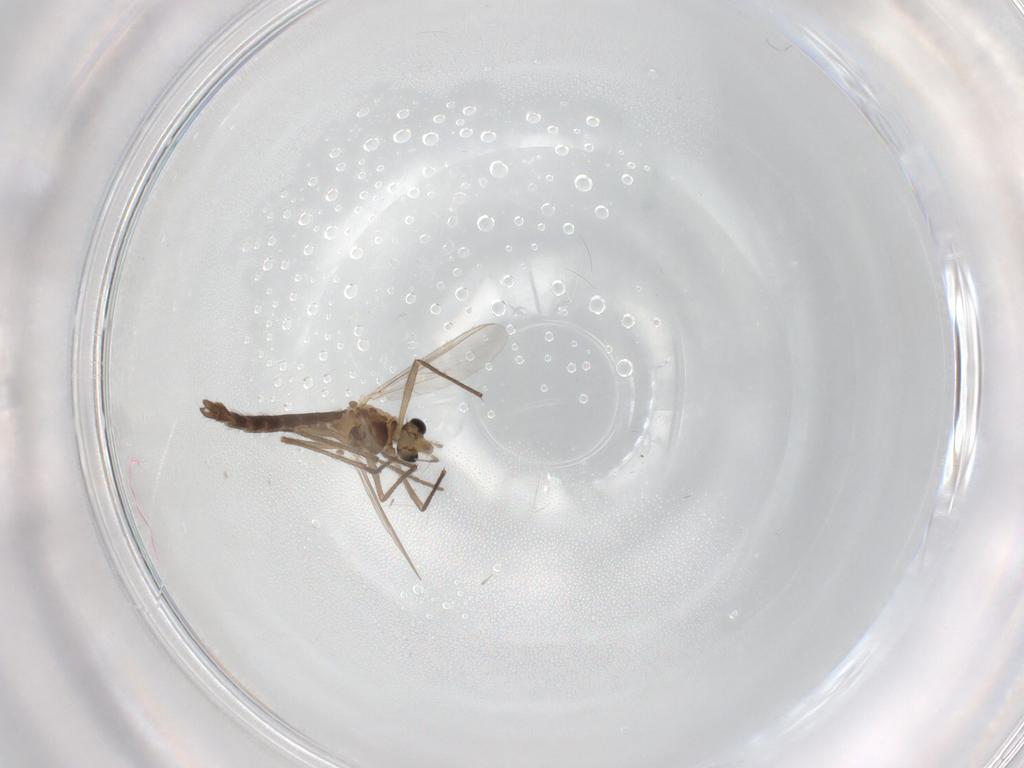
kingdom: Animalia
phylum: Arthropoda
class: Insecta
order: Diptera
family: Chironomidae
